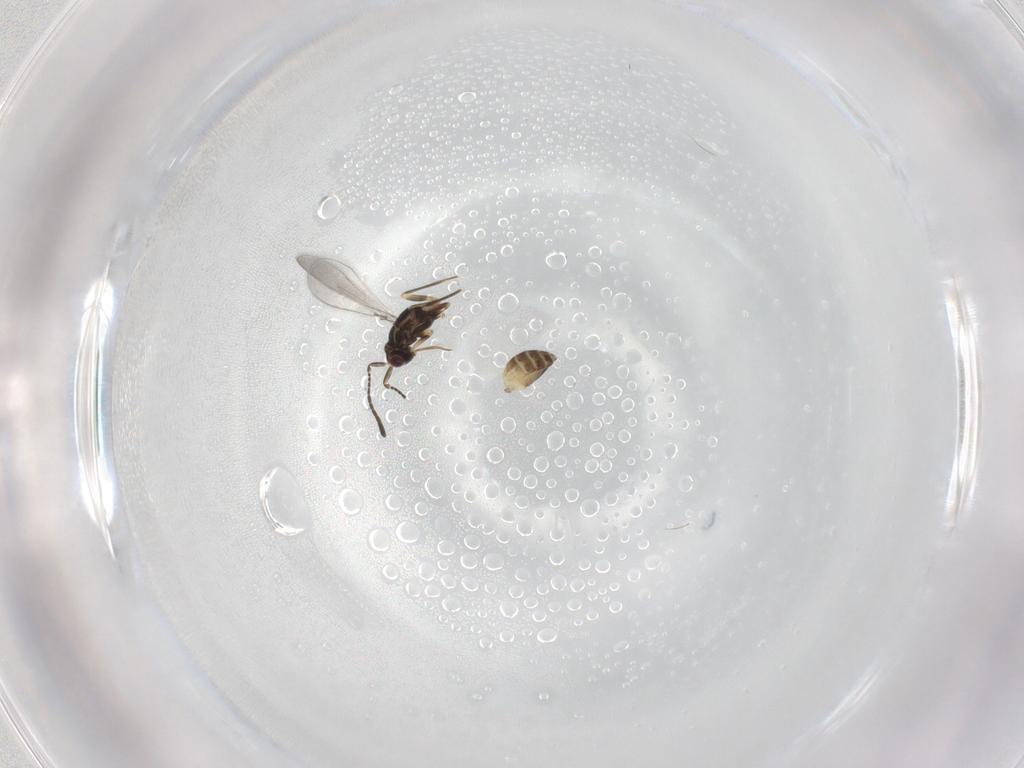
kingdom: Animalia
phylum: Arthropoda
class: Insecta
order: Hymenoptera
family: Mymaridae
